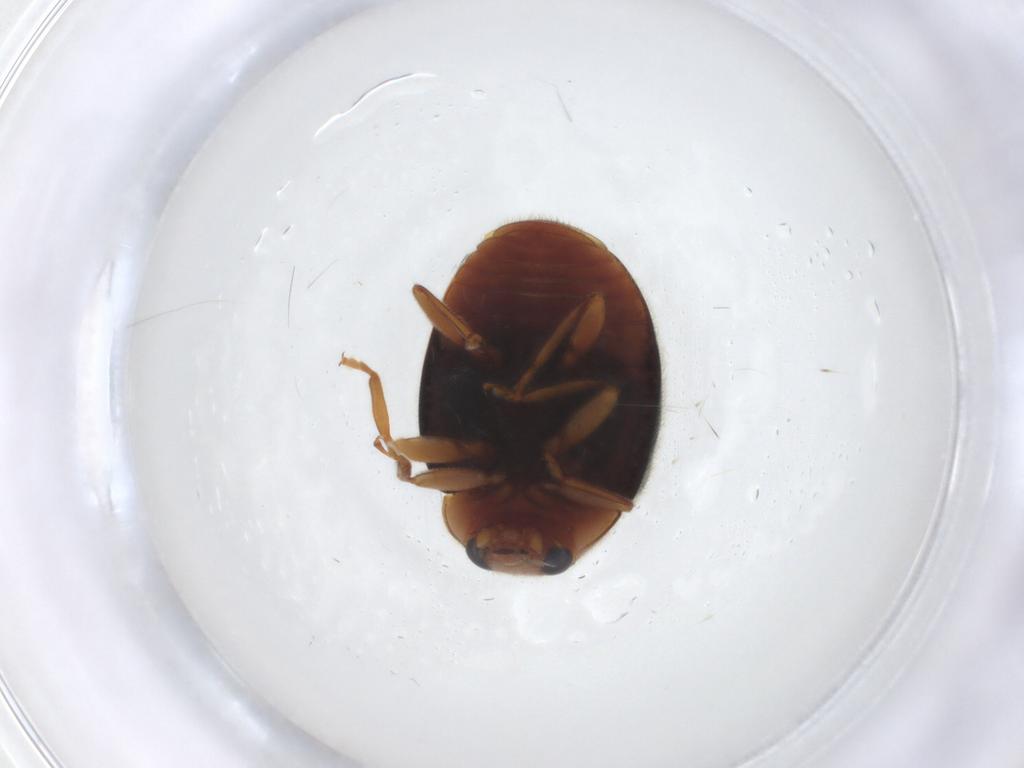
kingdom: Animalia
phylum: Arthropoda
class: Insecta
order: Coleoptera
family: Coccinellidae
